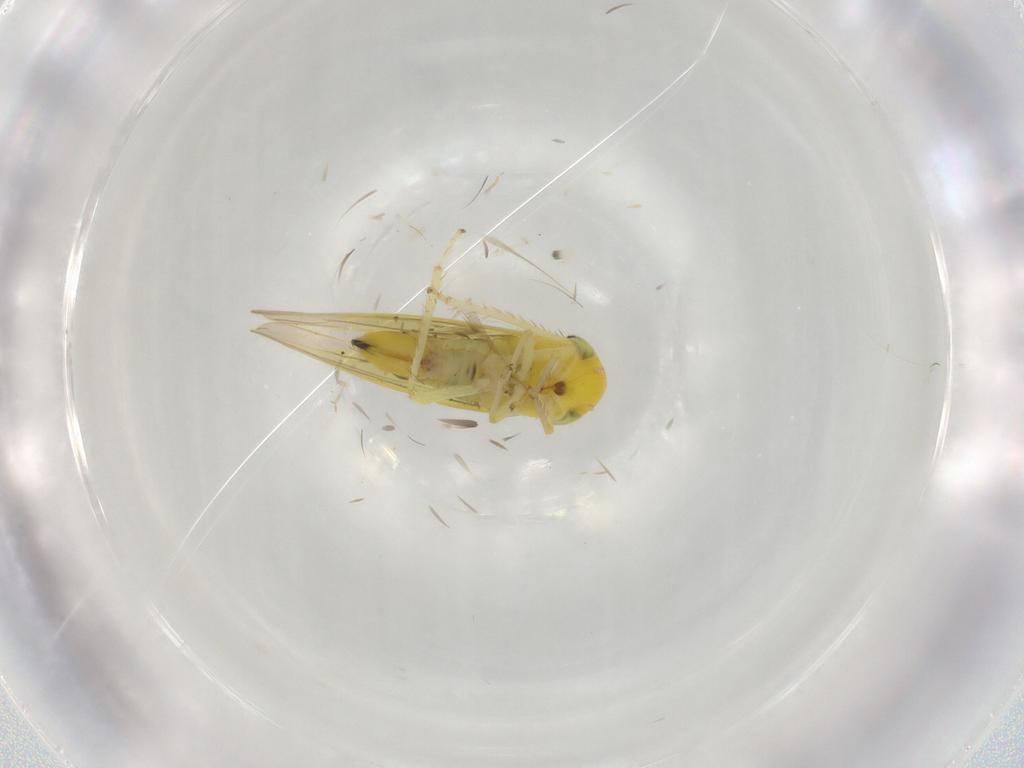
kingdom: Animalia
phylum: Arthropoda
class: Insecta
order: Hemiptera
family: Cicadellidae
